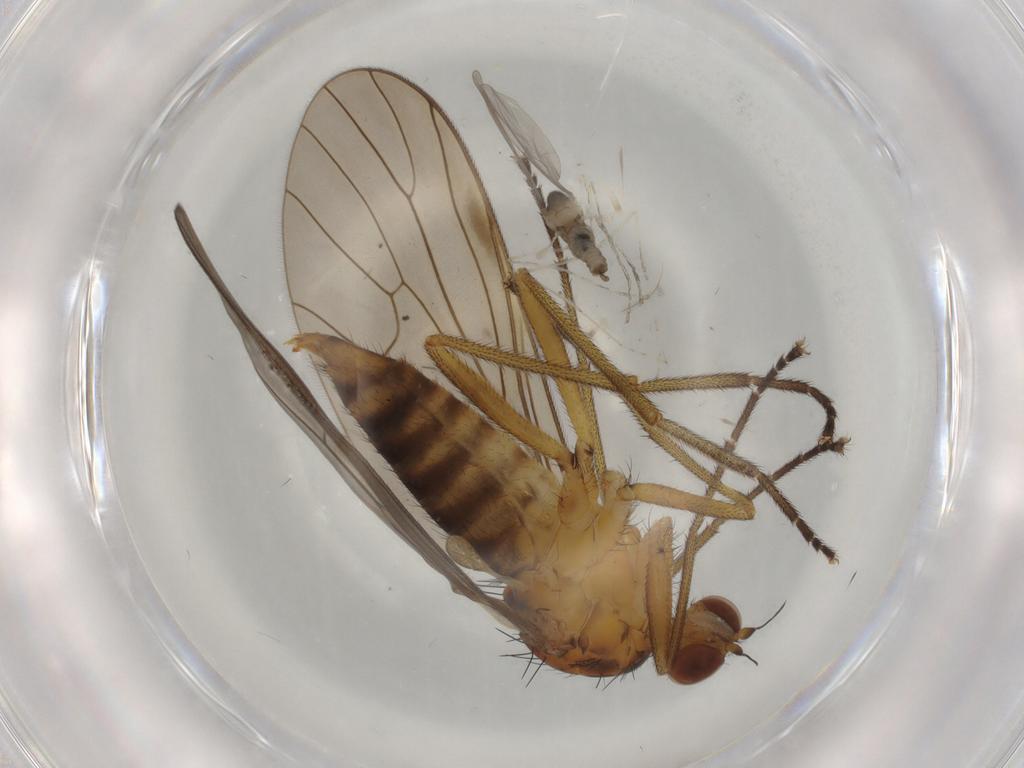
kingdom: Animalia
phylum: Arthropoda
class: Insecta
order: Diptera
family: Brachystomatidae
